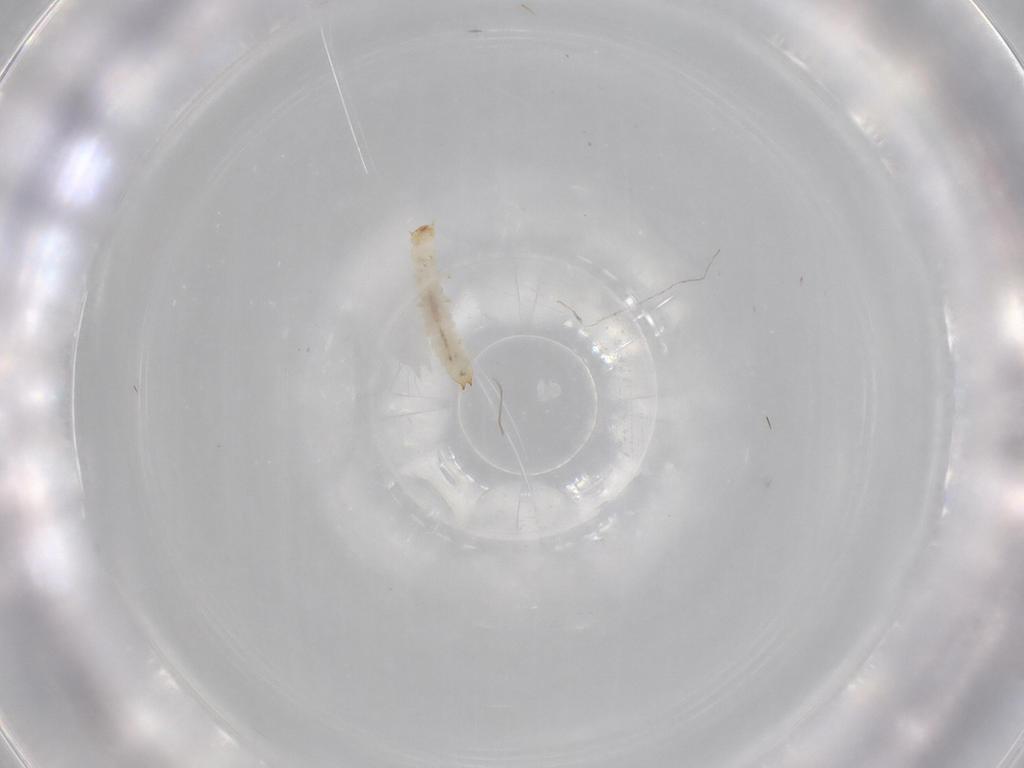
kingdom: Animalia
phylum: Arthropoda
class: Insecta
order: Coleoptera
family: Aderidae
